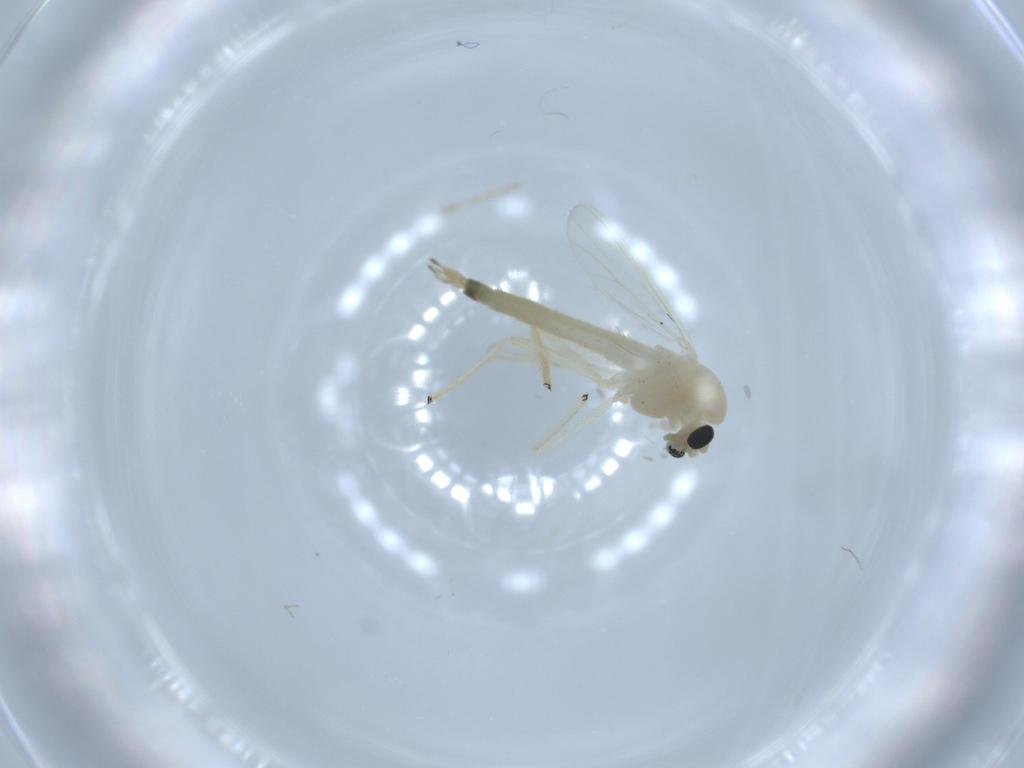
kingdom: Animalia
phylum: Arthropoda
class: Insecta
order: Diptera
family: Chironomidae
